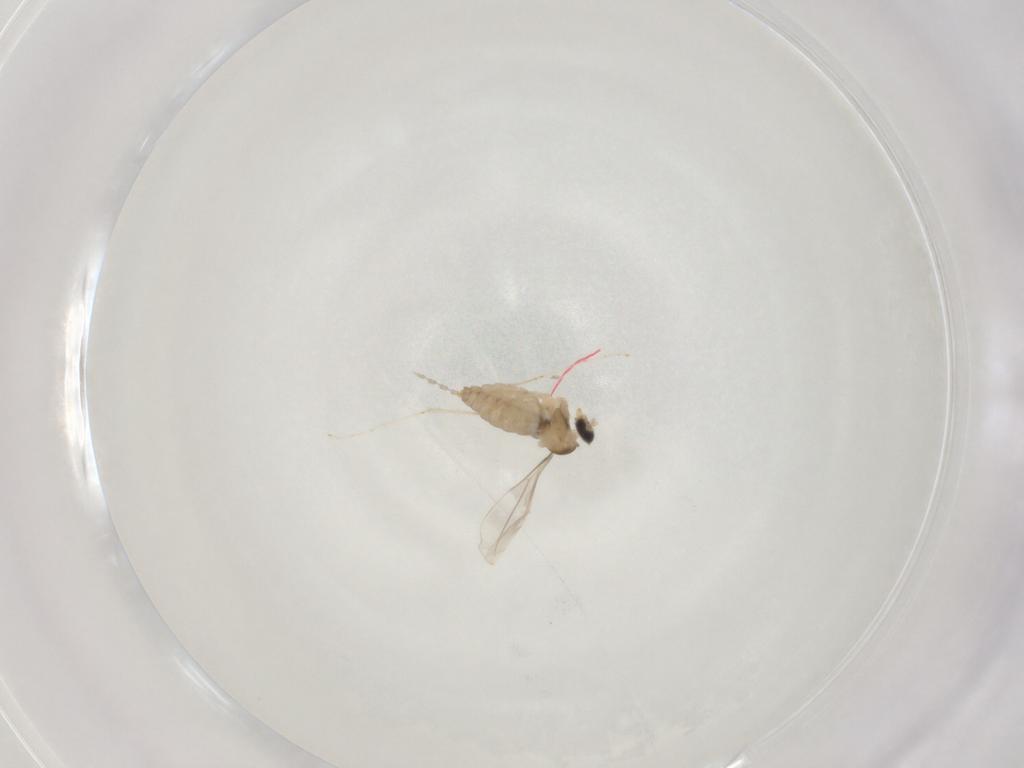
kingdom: Animalia
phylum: Arthropoda
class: Insecta
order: Diptera
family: Cecidomyiidae
